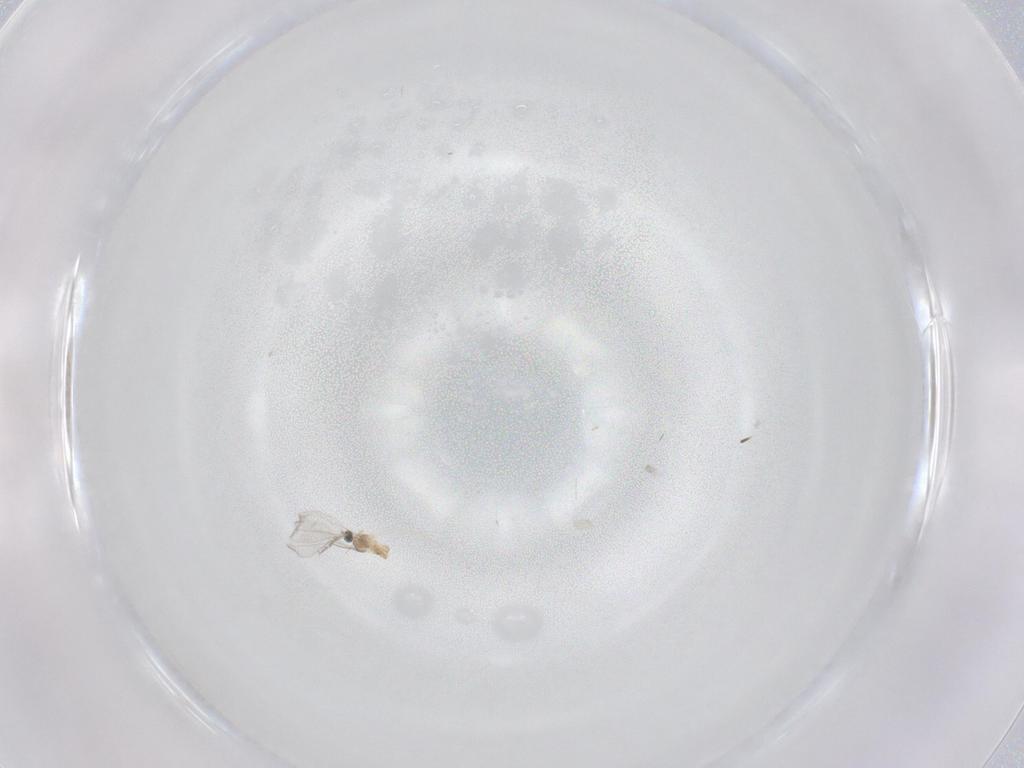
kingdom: Animalia
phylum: Arthropoda
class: Insecta
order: Diptera
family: Cecidomyiidae
